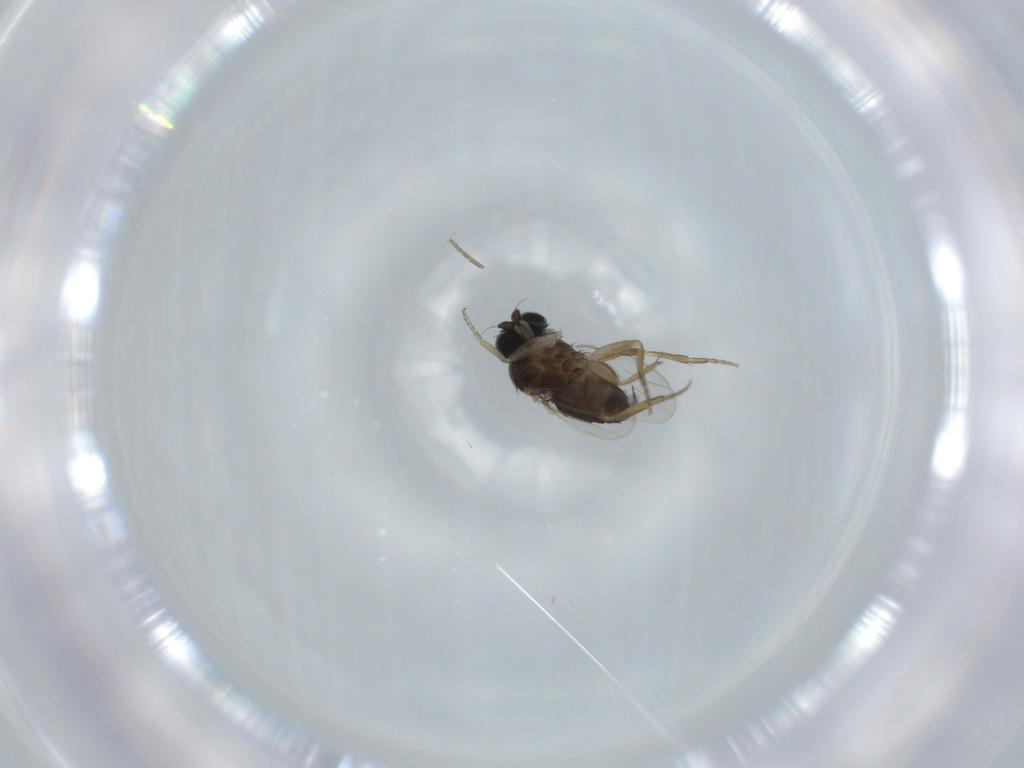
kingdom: Animalia
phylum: Arthropoda
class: Insecta
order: Diptera
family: Phoridae
